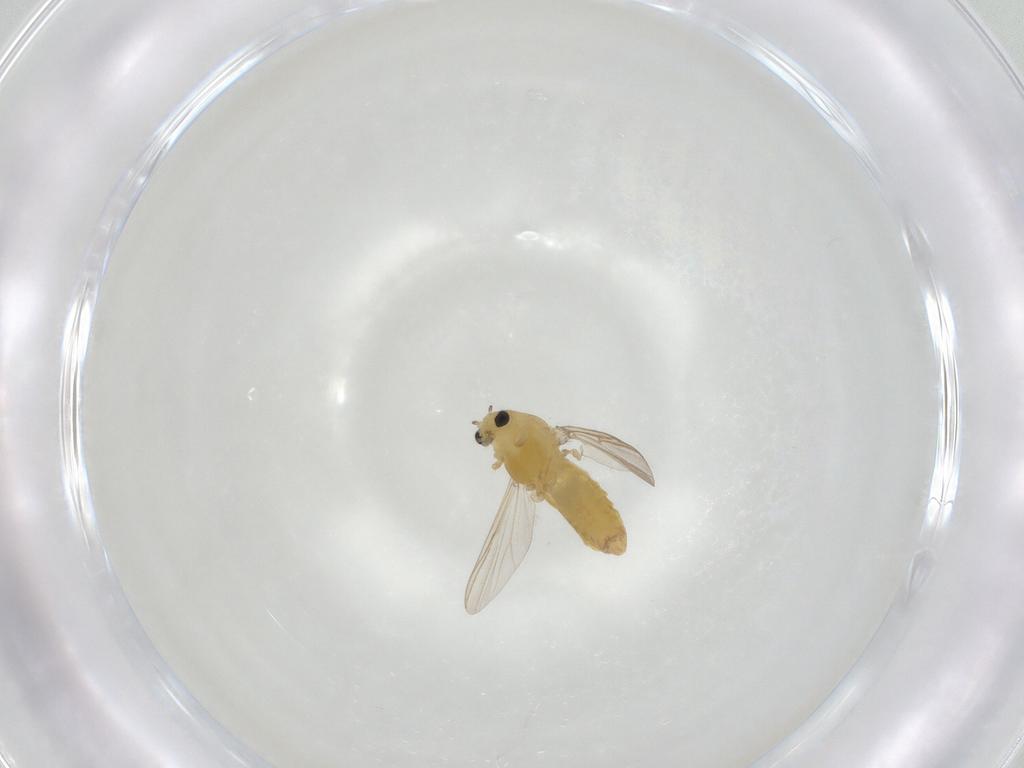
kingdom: Animalia
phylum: Arthropoda
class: Insecta
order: Diptera
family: Chironomidae
